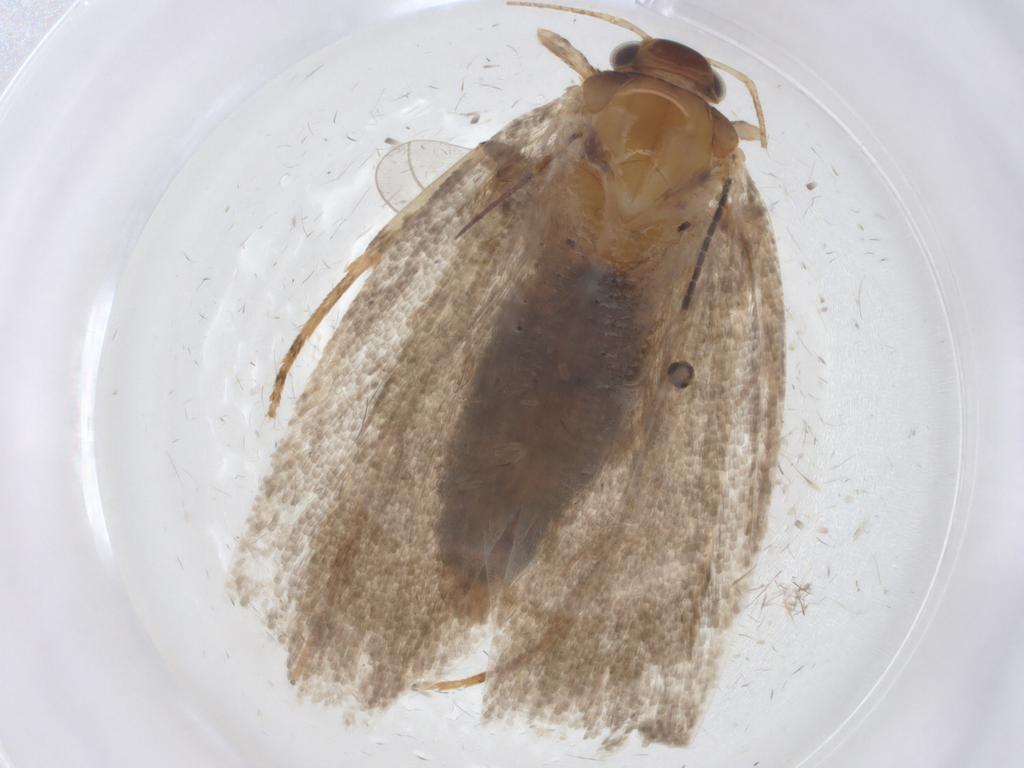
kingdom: Animalia
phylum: Arthropoda
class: Insecta
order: Lepidoptera
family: Oecophoridae
